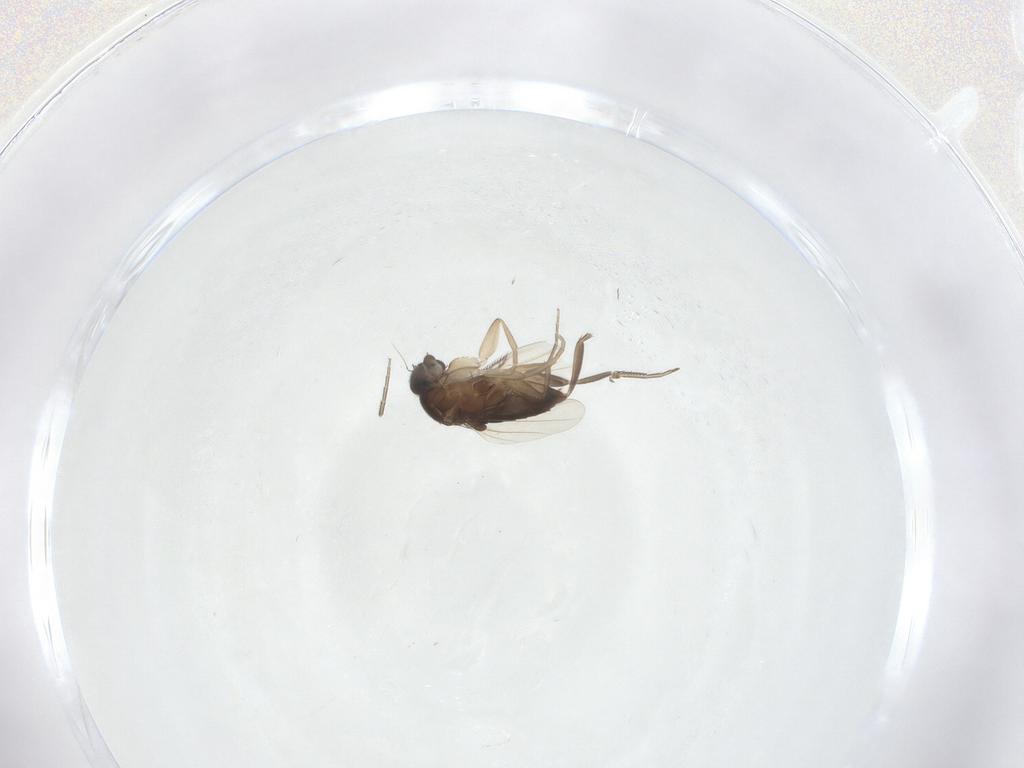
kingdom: Animalia
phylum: Arthropoda
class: Insecta
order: Diptera
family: Phoridae
